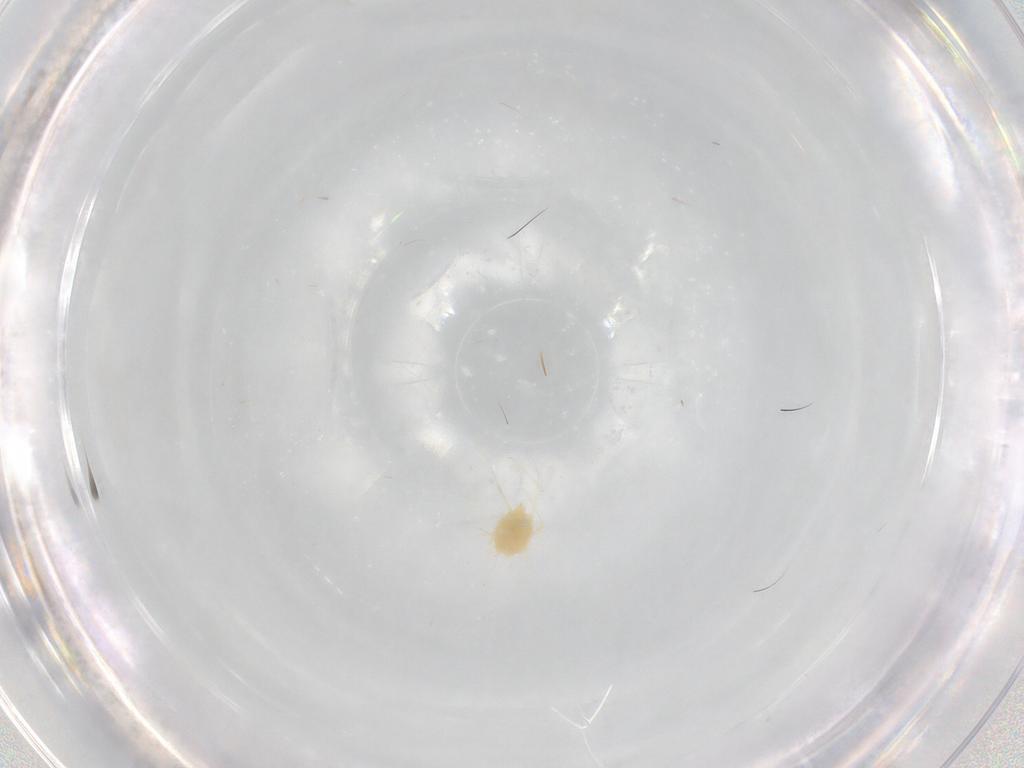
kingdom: Animalia
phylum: Arthropoda
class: Arachnida
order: Trombidiformes
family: Tetranychidae
